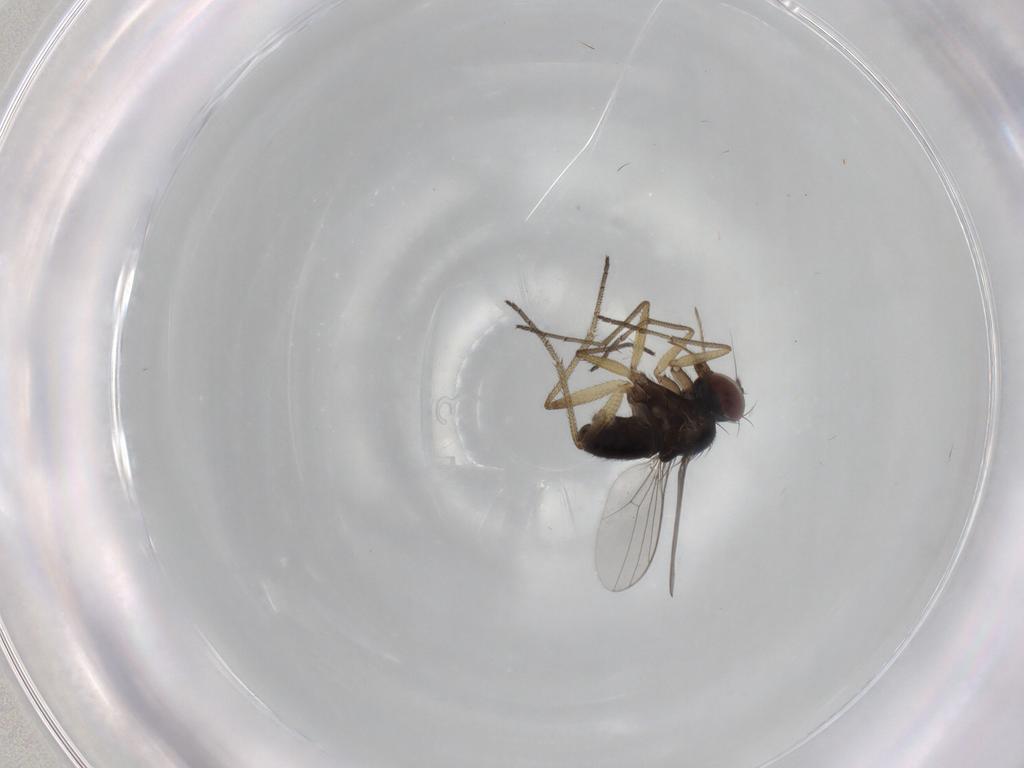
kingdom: Animalia
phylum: Arthropoda
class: Insecta
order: Diptera
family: Dolichopodidae
